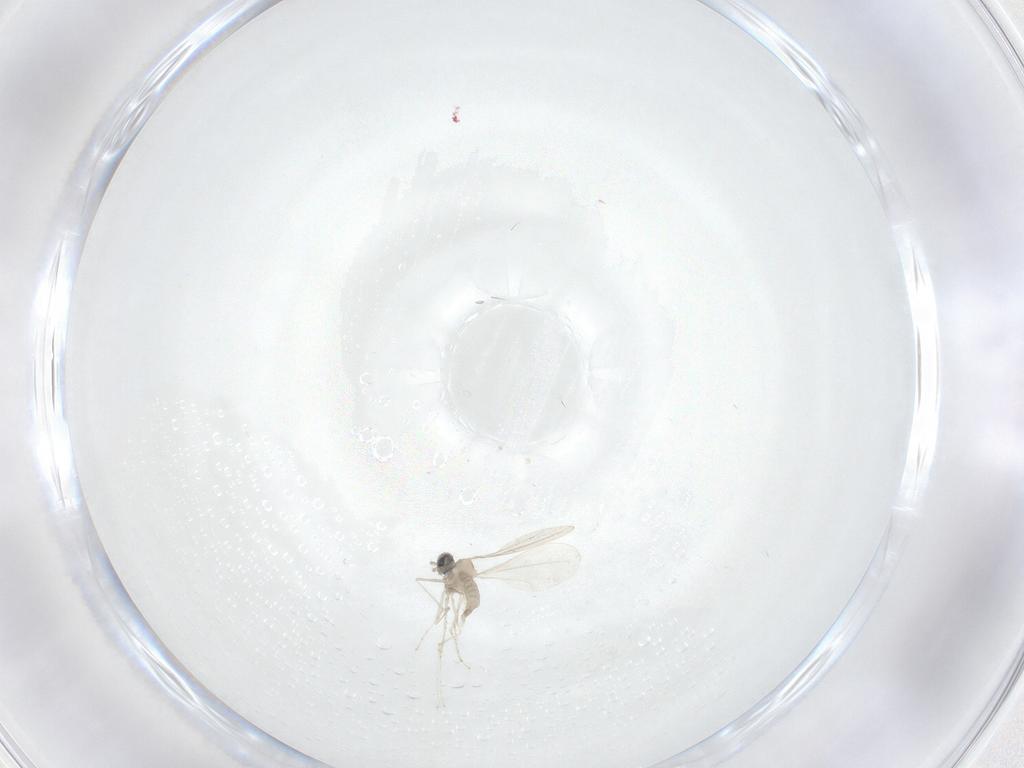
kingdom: Animalia
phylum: Arthropoda
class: Insecta
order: Diptera
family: Cecidomyiidae
